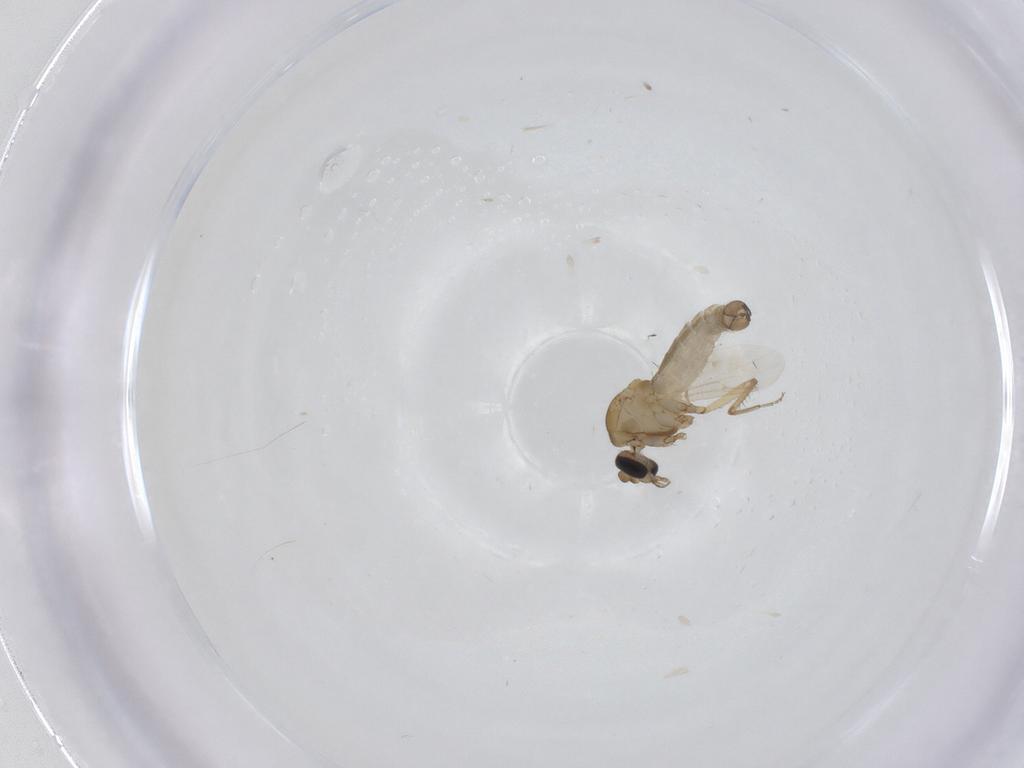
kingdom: Animalia
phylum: Arthropoda
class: Insecta
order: Diptera
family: Ceratopogonidae
